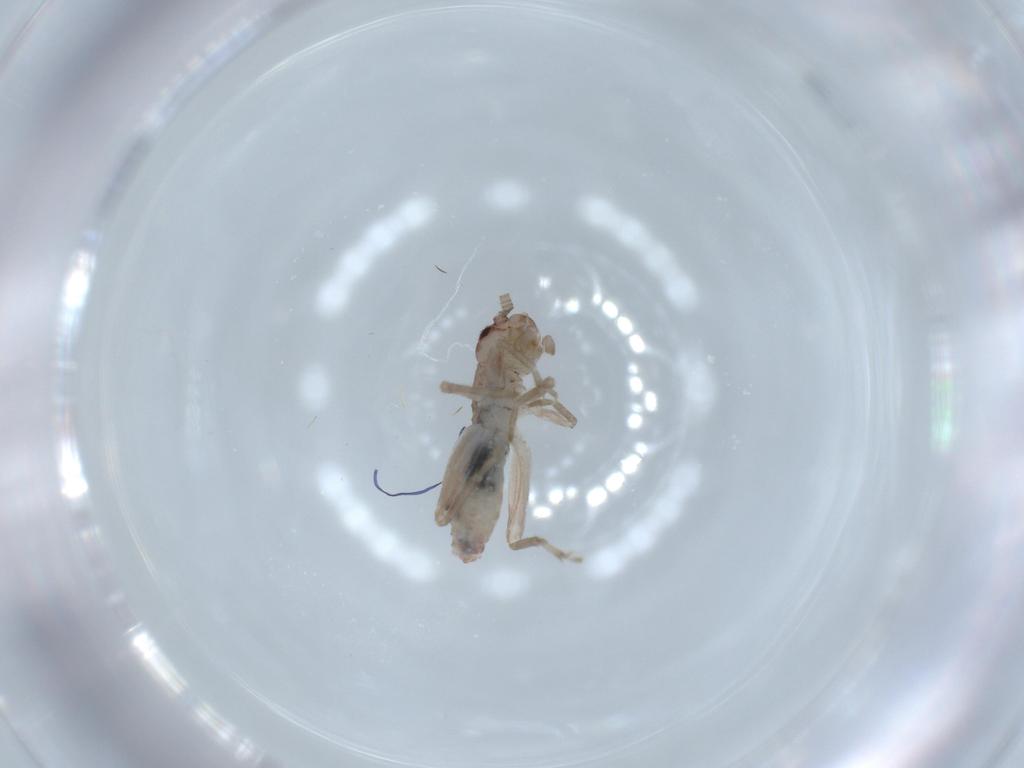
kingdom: Animalia
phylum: Arthropoda
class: Insecta
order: Orthoptera
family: Mogoplistidae
